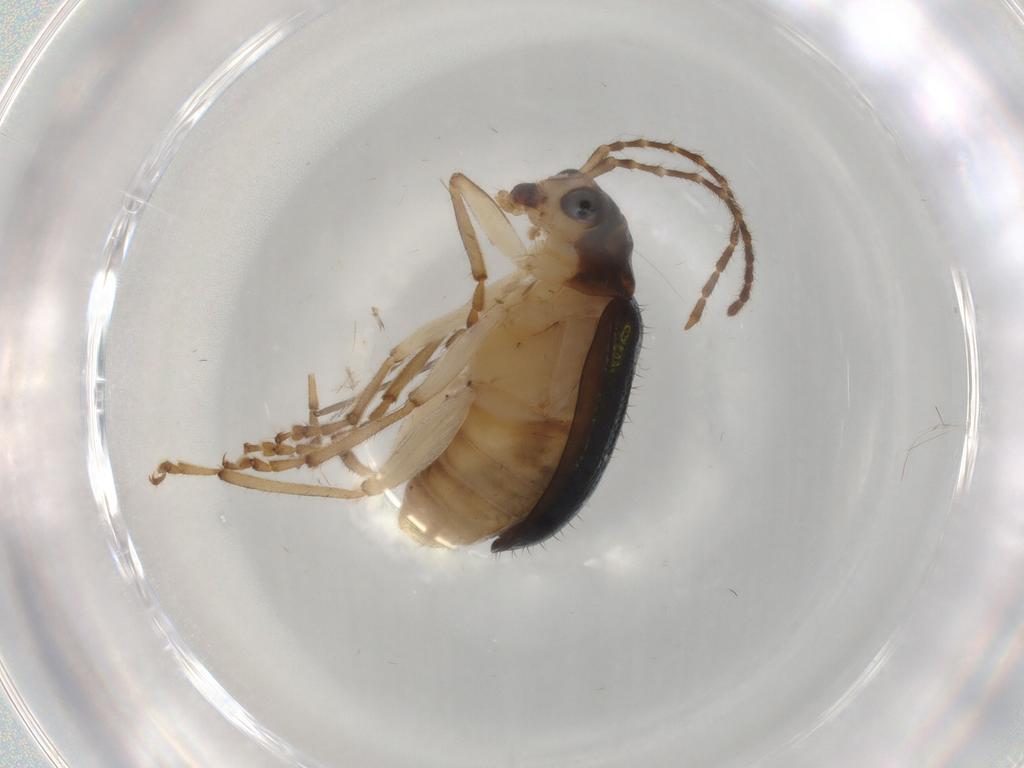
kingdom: Animalia
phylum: Arthropoda
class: Insecta
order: Coleoptera
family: Chrysomelidae
